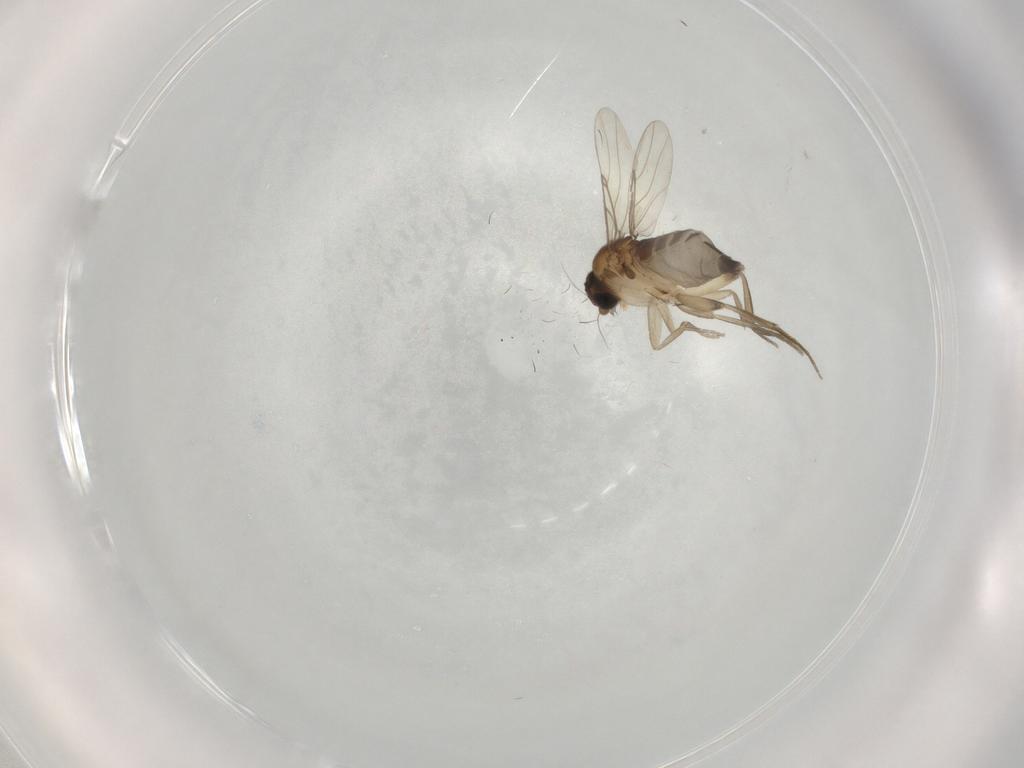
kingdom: Animalia
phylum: Arthropoda
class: Insecta
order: Diptera
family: Phoridae
